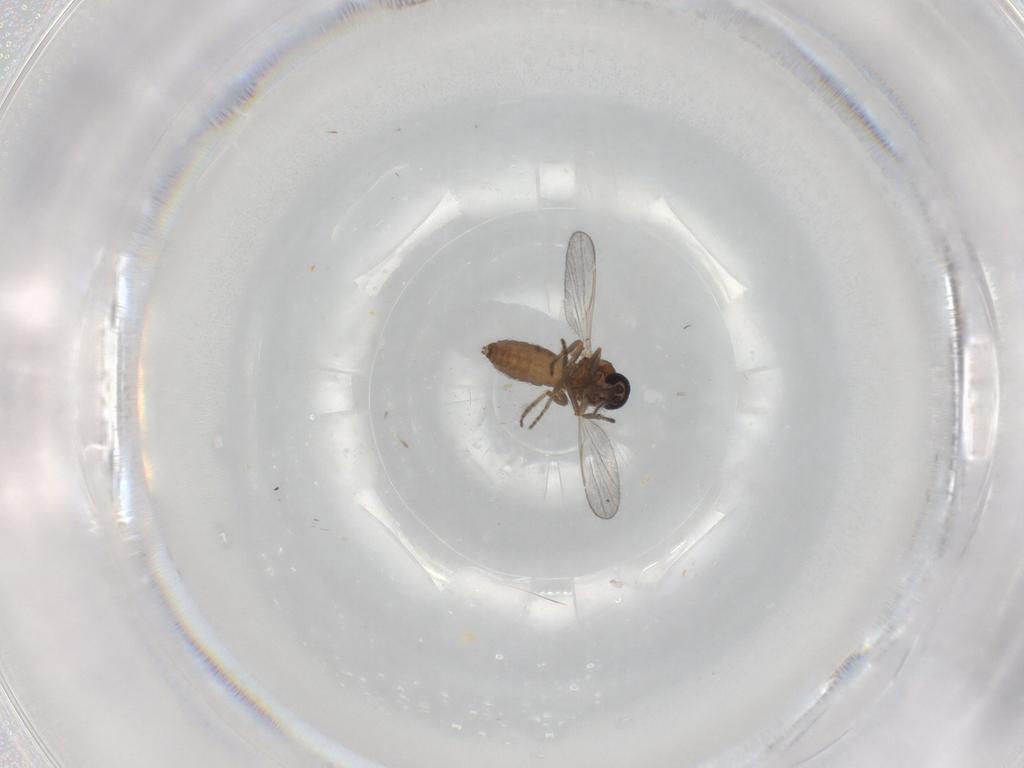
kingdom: Animalia
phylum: Arthropoda
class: Insecta
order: Diptera
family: Ceratopogonidae
